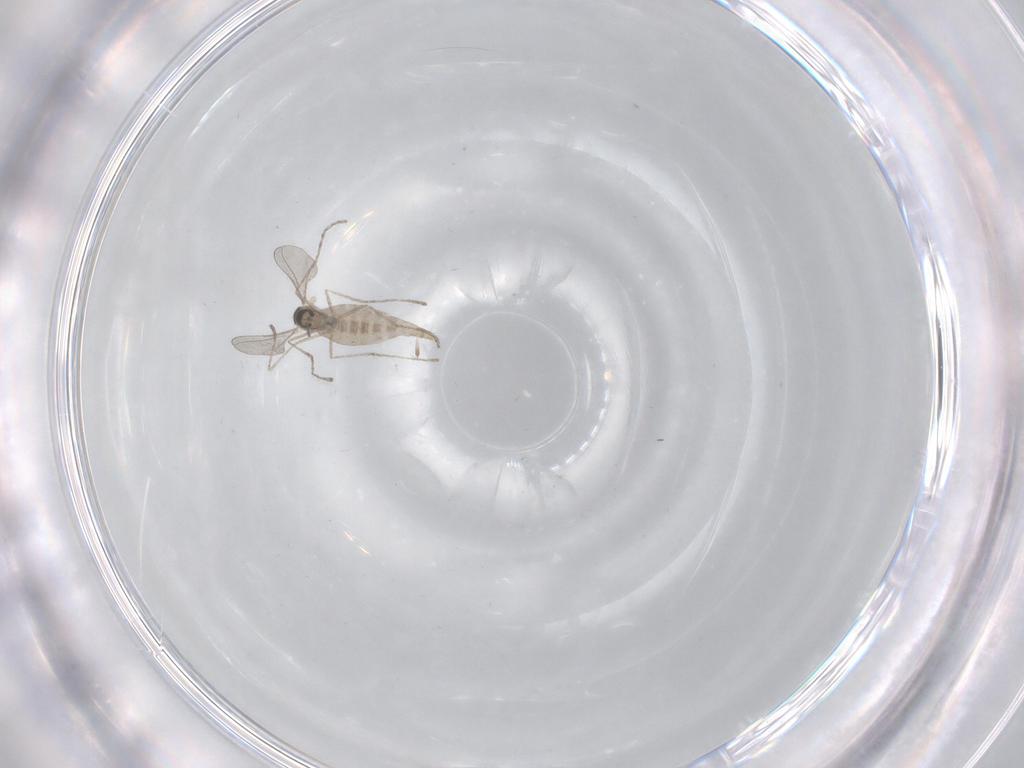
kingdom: Animalia
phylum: Arthropoda
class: Insecta
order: Diptera
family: Cecidomyiidae
